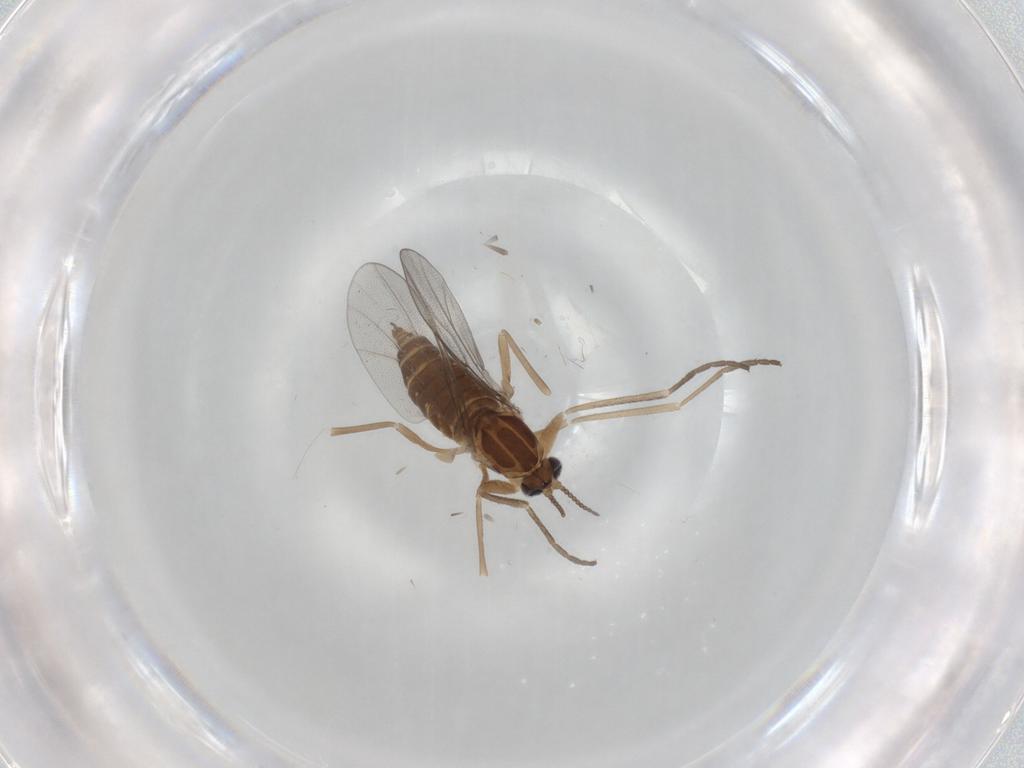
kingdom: Animalia
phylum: Arthropoda
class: Insecta
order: Diptera
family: Cecidomyiidae
